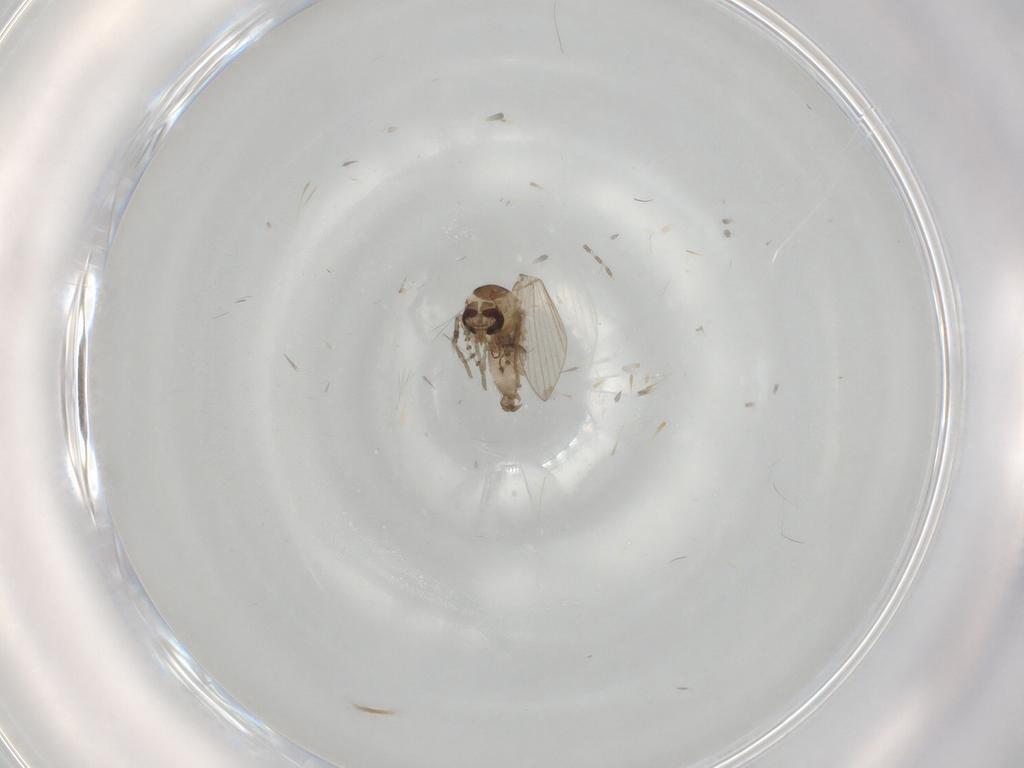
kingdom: Animalia
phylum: Arthropoda
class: Insecta
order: Diptera
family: Psychodidae
